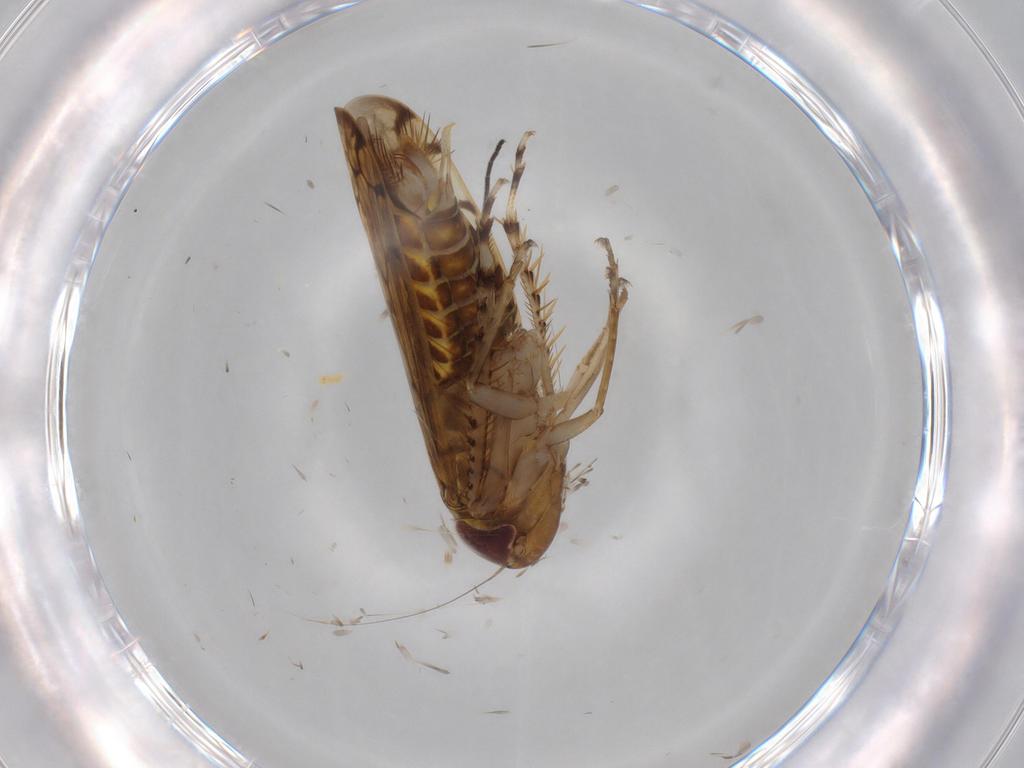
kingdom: Animalia
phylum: Arthropoda
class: Insecta
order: Hemiptera
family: Cicadellidae
